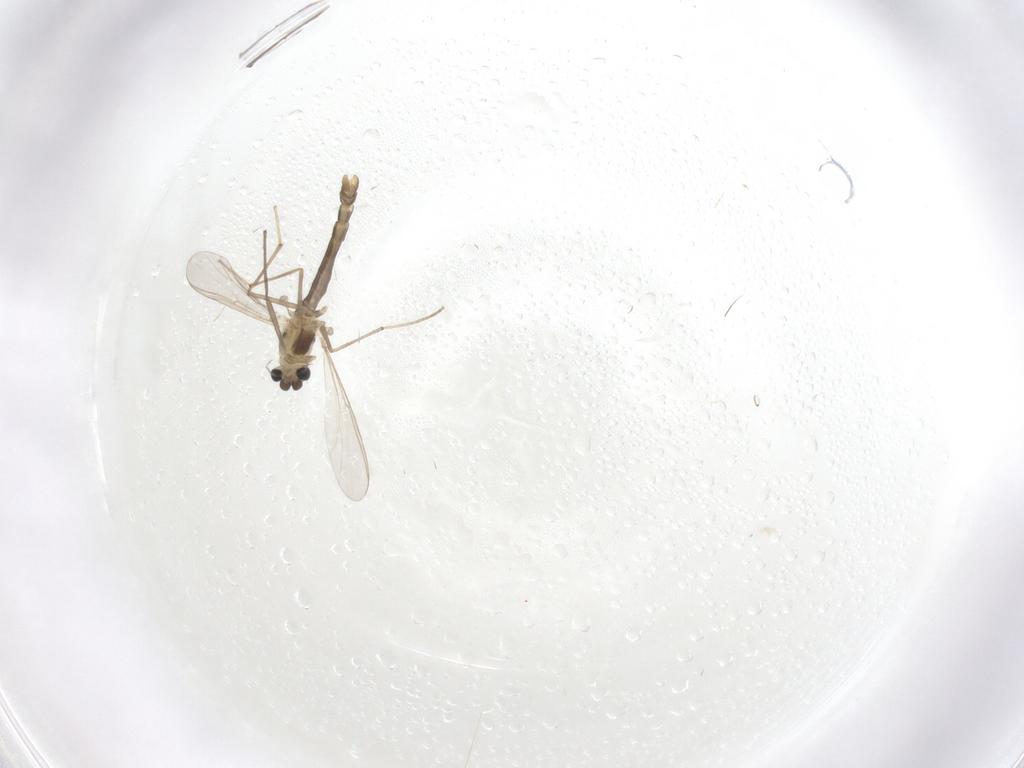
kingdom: Animalia
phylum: Arthropoda
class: Insecta
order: Diptera
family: Chironomidae
